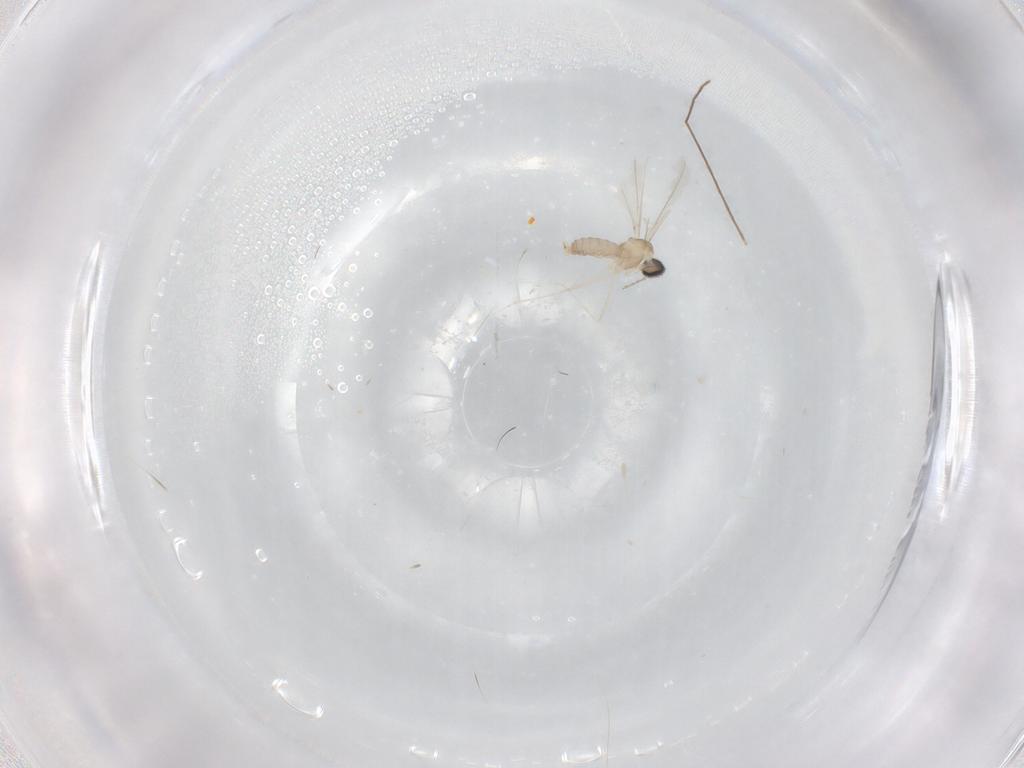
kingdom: Animalia
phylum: Arthropoda
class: Insecta
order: Diptera
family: Cecidomyiidae
